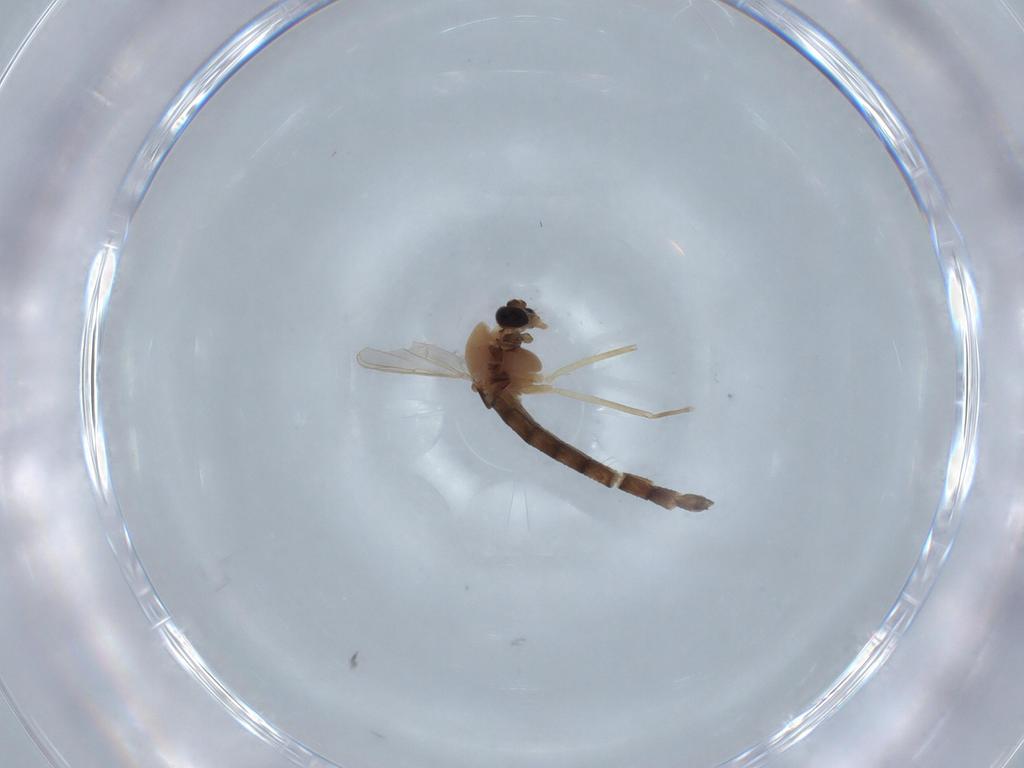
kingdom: Animalia
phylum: Arthropoda
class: Insecta
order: Diptera
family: Chironomidae
